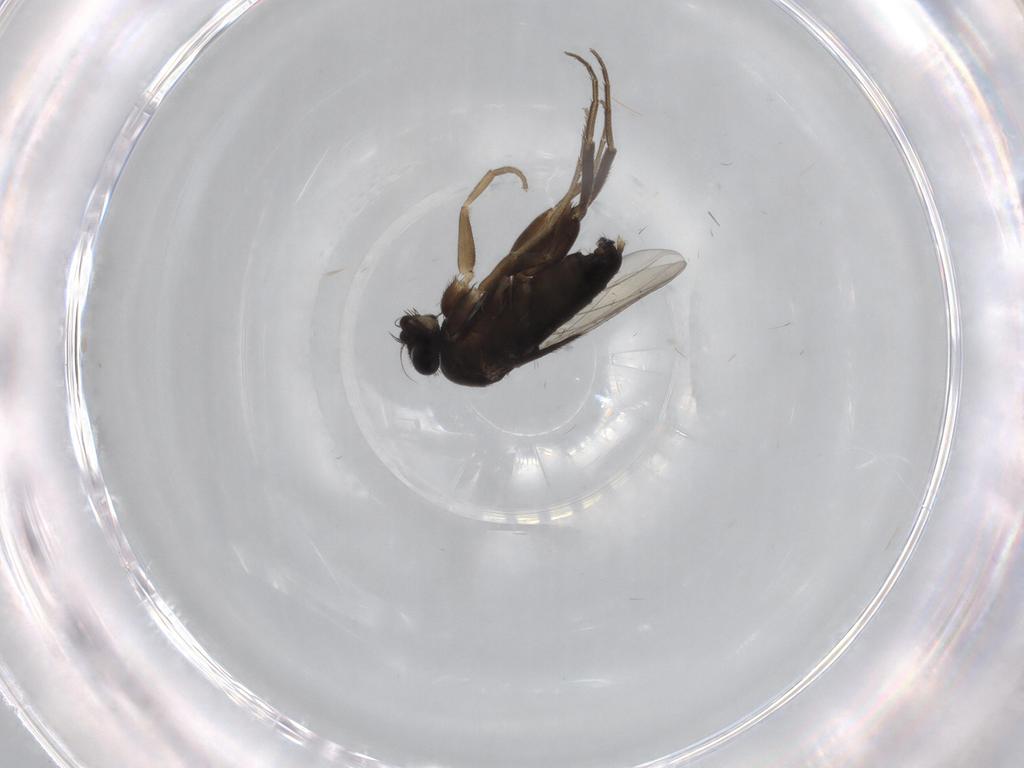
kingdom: Animalia
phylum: Arthropoda
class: Insecta
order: Diptera
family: Phoridae
